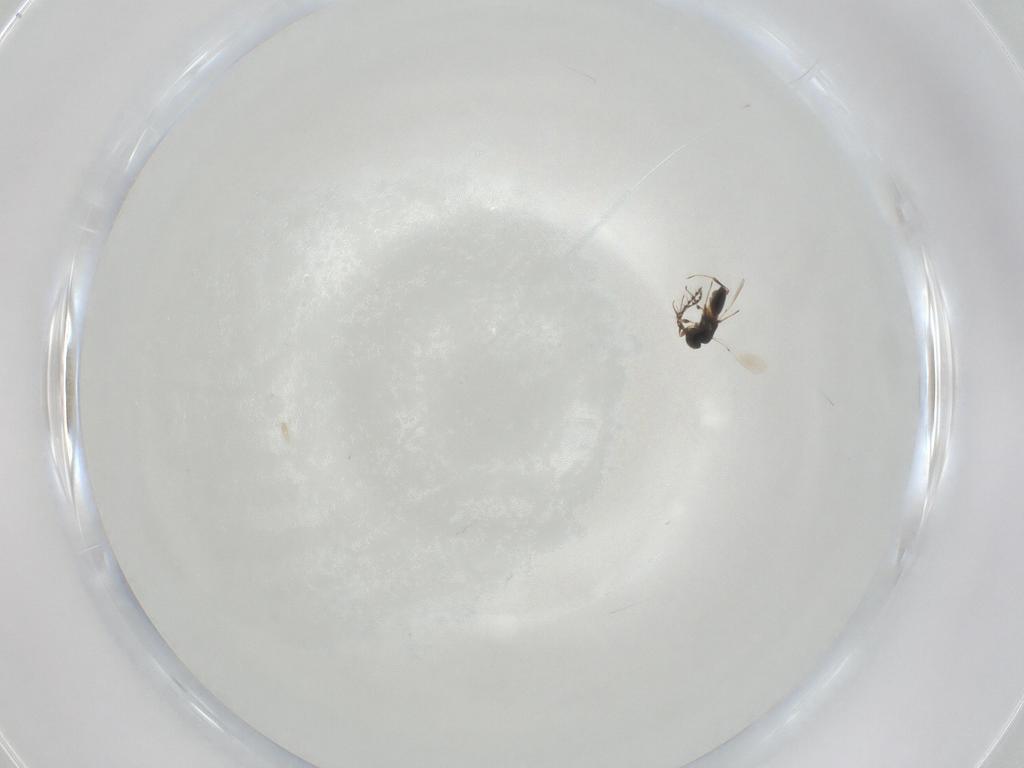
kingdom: Animalia
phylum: Arthropoda
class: Insecta
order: Hymenoptera
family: Platygastridae
